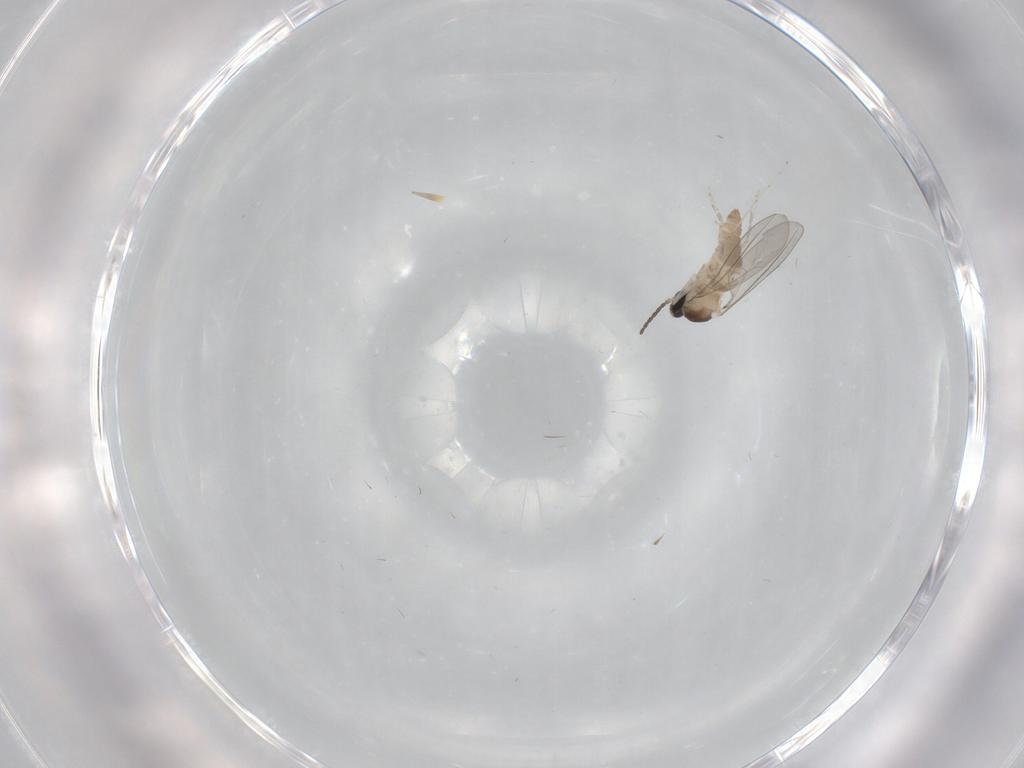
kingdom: Animalia
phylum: Arthropoda
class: Insecta
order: Diptera
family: Cecidomyiidae
